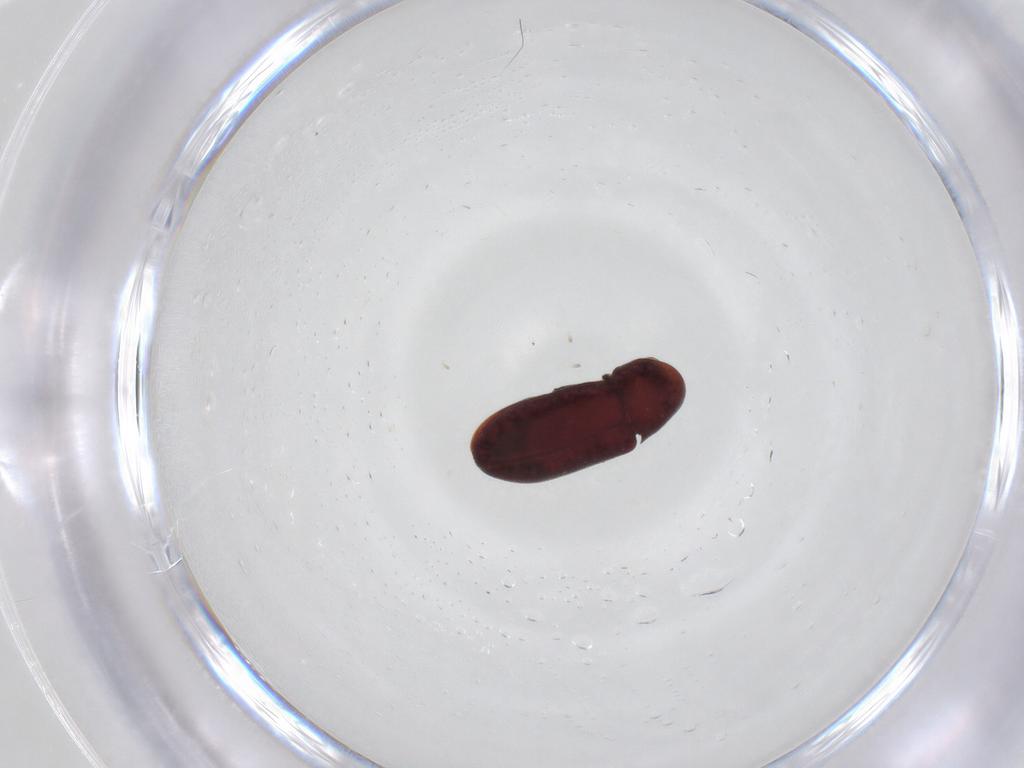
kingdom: Animalia
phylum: Arthropoda
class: Insecta
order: Coleoptera
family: Ptinidae
